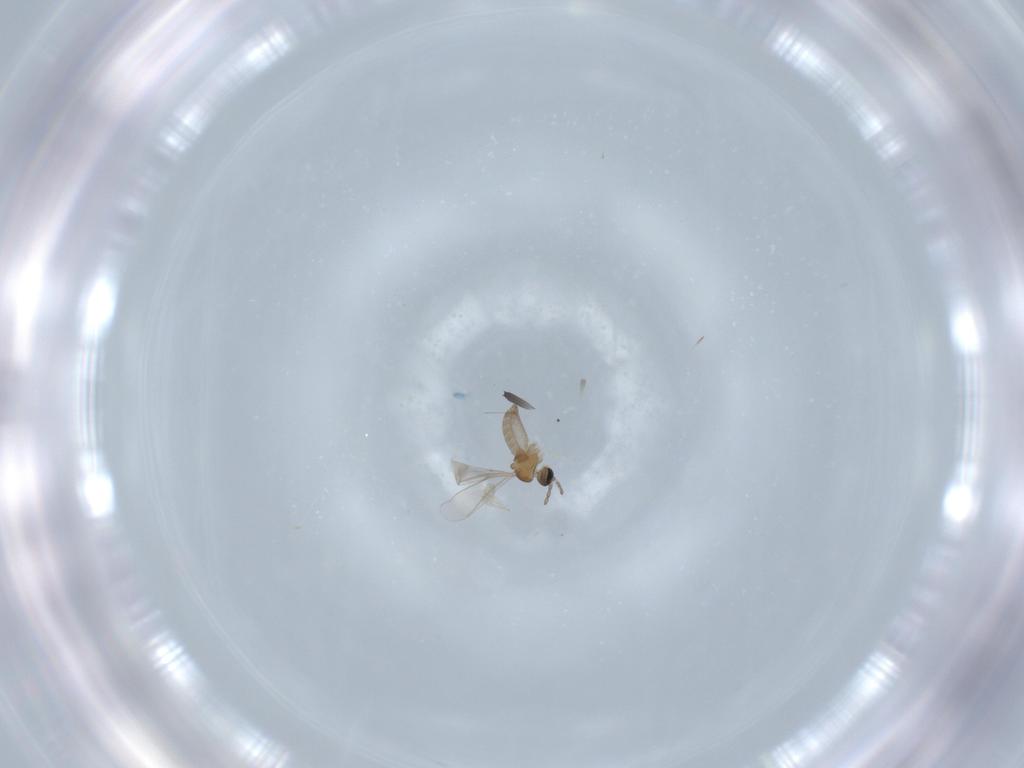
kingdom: Animalia
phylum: Arthropoda
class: Insecta
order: Diptera
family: Cecidomyiidae
